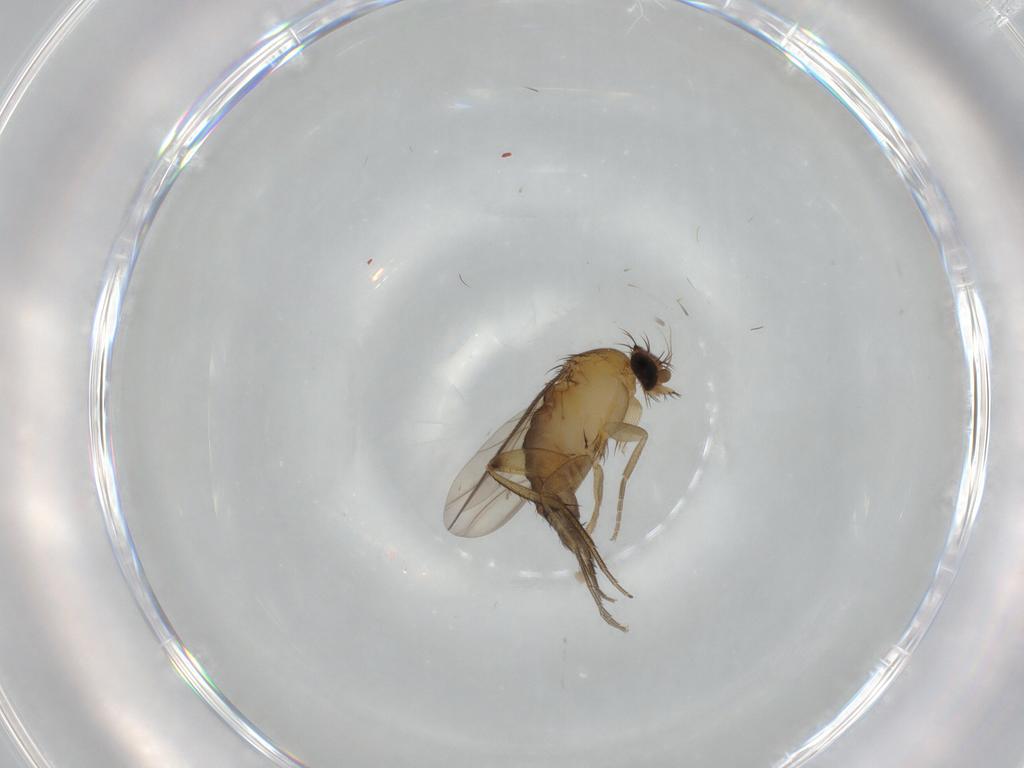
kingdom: Animalia
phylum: Arthropoda
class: Insecta
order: Diptera
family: Phoridae
